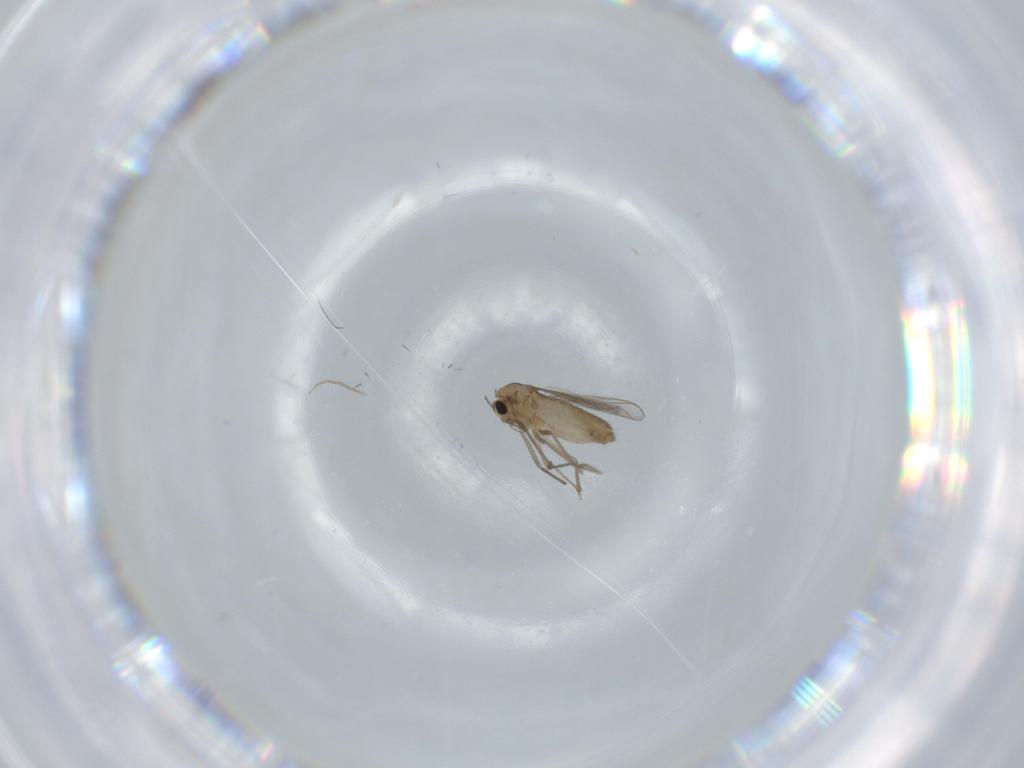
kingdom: Animalia
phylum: Arthropoda
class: Insecta
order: Diptera
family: Chironomidae
